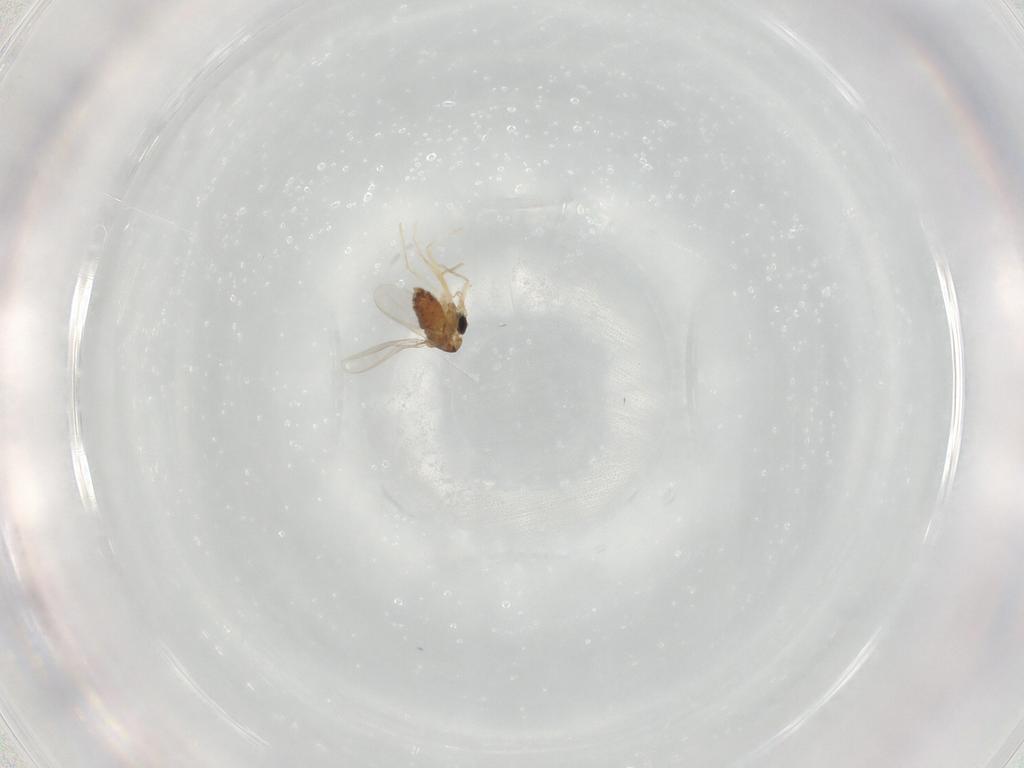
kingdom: Animalia
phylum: Arthropoda
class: Insecta
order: Diptera
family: Chironomidae
